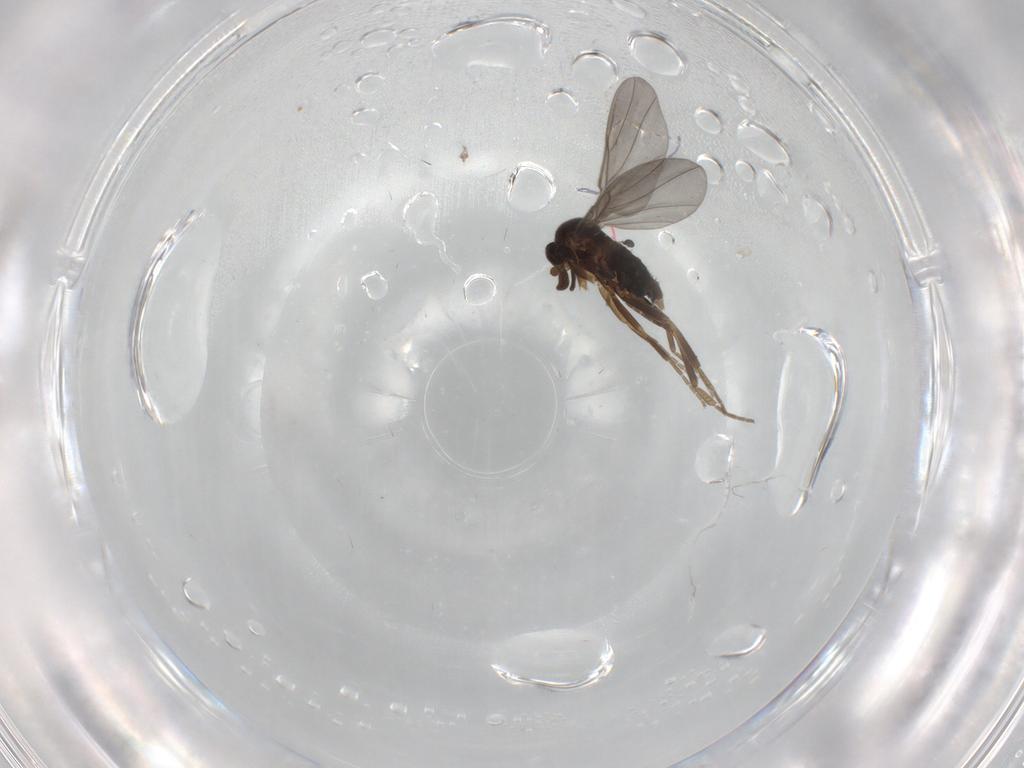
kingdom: Animalia
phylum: Arthropoda
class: Insecta
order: Diptera
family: Phoridae
